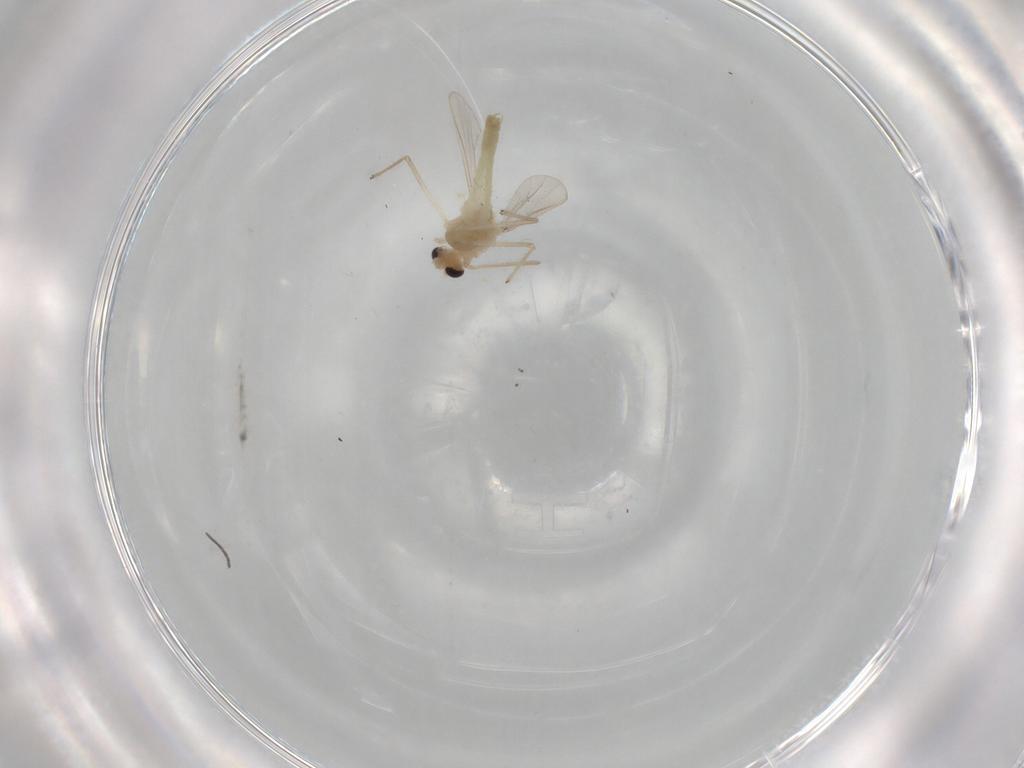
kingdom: Animalia
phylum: Arthropoda
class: Insecta
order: Diptera
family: Chironomidae
